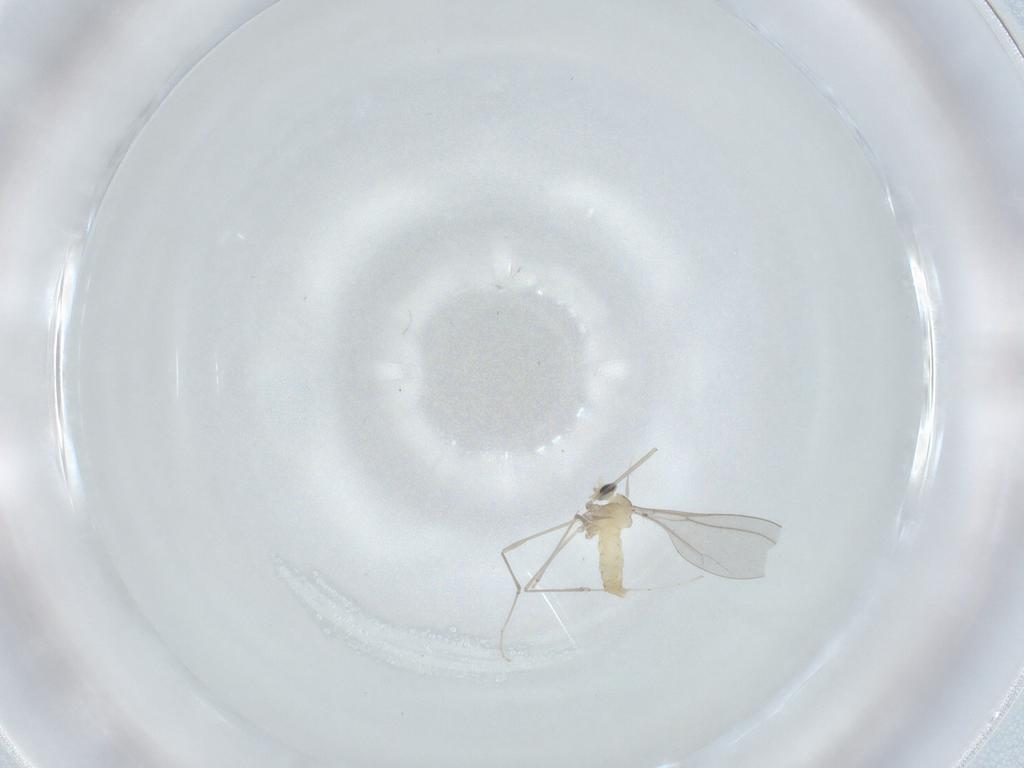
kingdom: Animalia
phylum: Arthropoda
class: Insecta
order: Diptera
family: Cecidomyiidae
